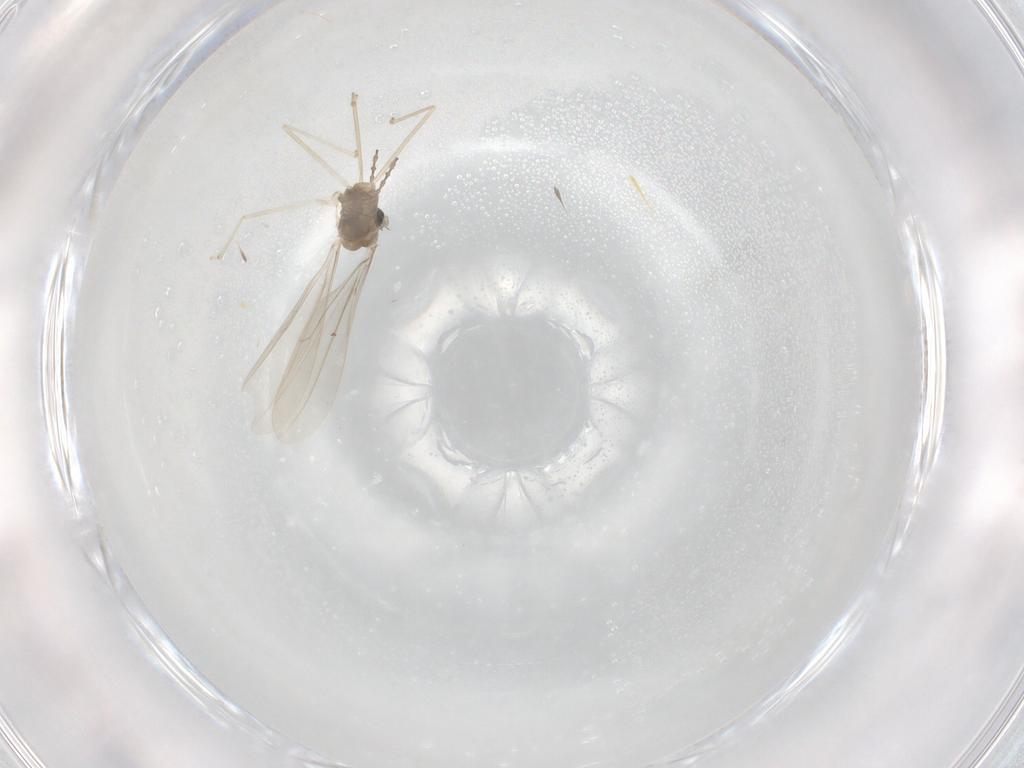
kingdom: Animalia
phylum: Arthropoda
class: Insecta
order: Diptera
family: Cecidomyiidae
